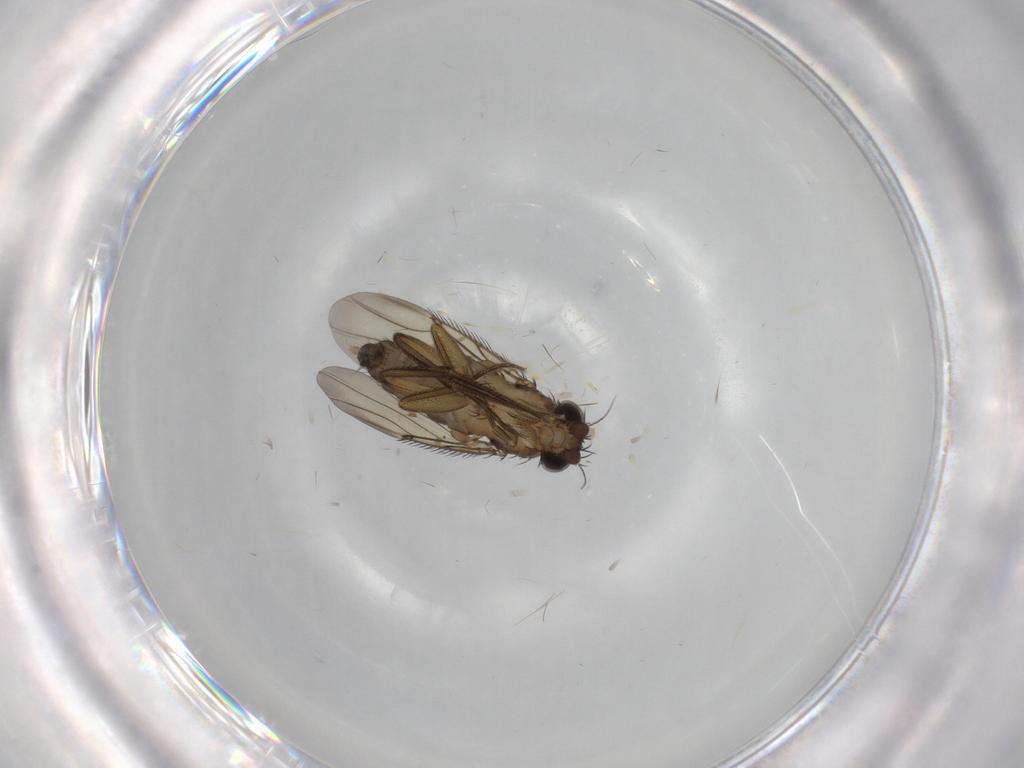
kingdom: Animalia
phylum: Arthropoda
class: Insecta
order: Diptera
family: Phoridae
